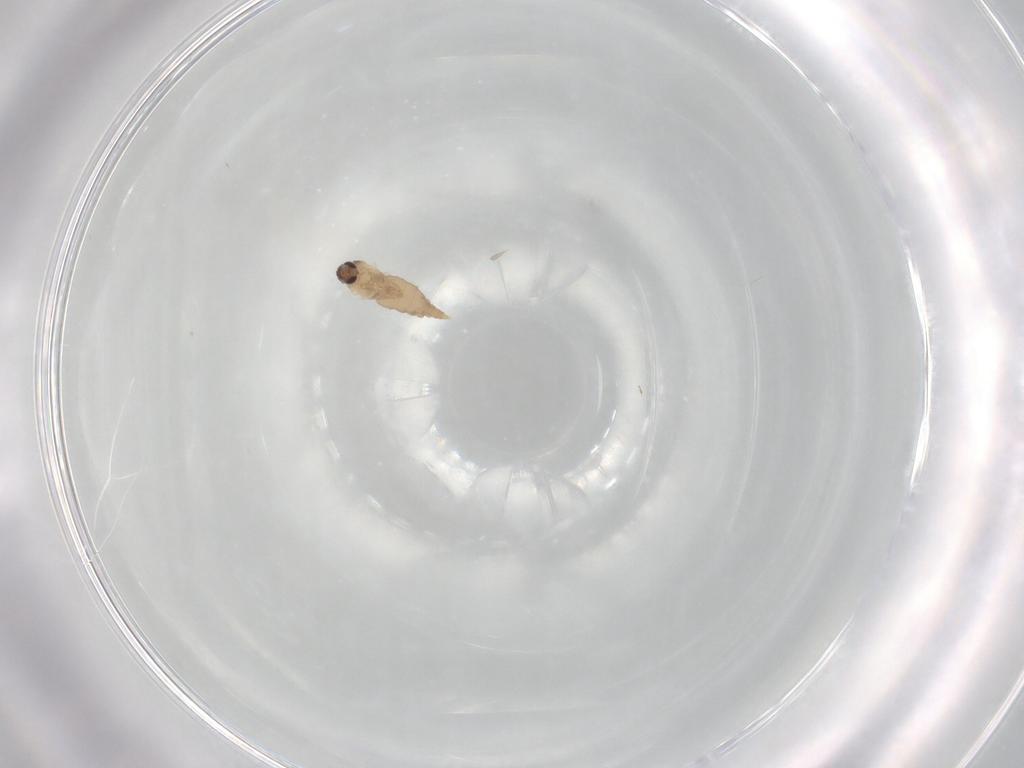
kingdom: Animalia
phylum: Arthropoda
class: Insecta
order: Diptera
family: Tabanidae
